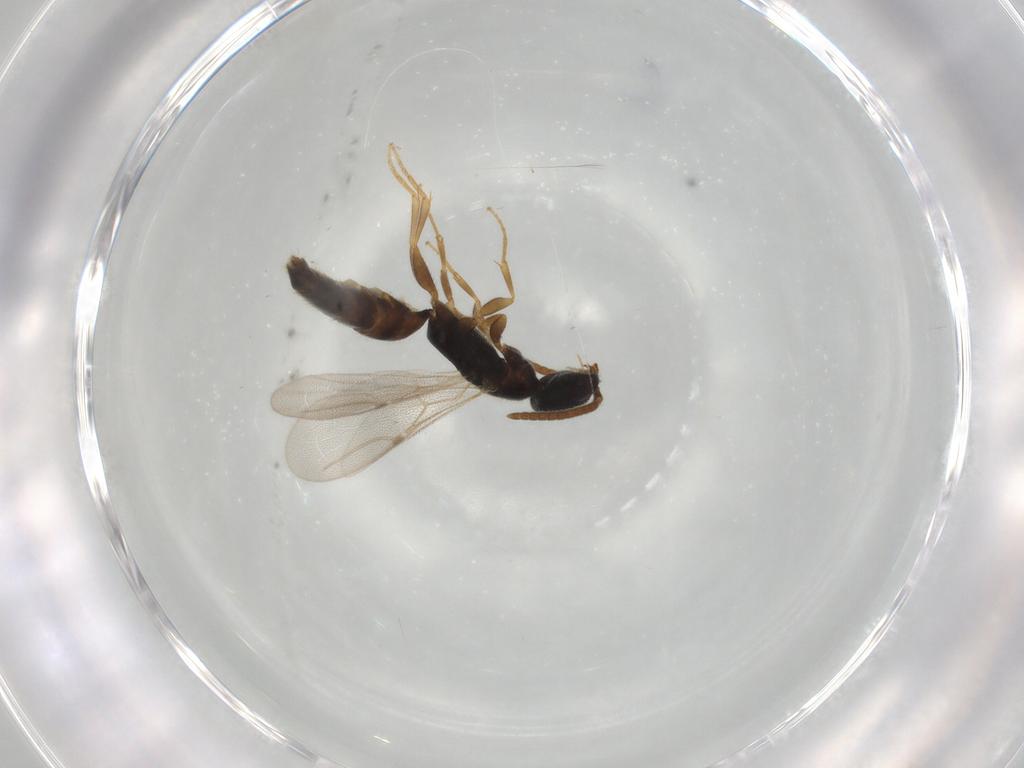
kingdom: Animalia
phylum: Arthropoda
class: Insecta
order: Hymenoptera
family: Bethylidae
